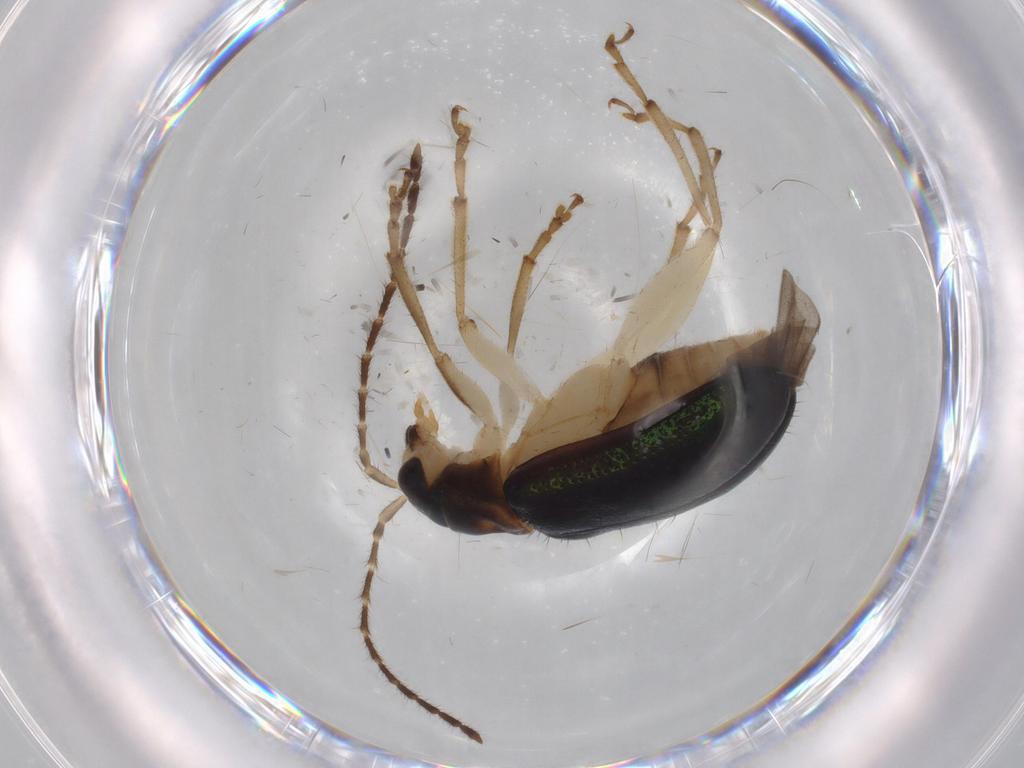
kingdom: Animalia
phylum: Arthropoda
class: Insecta
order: Coleoptera
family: Chrysomelidae
